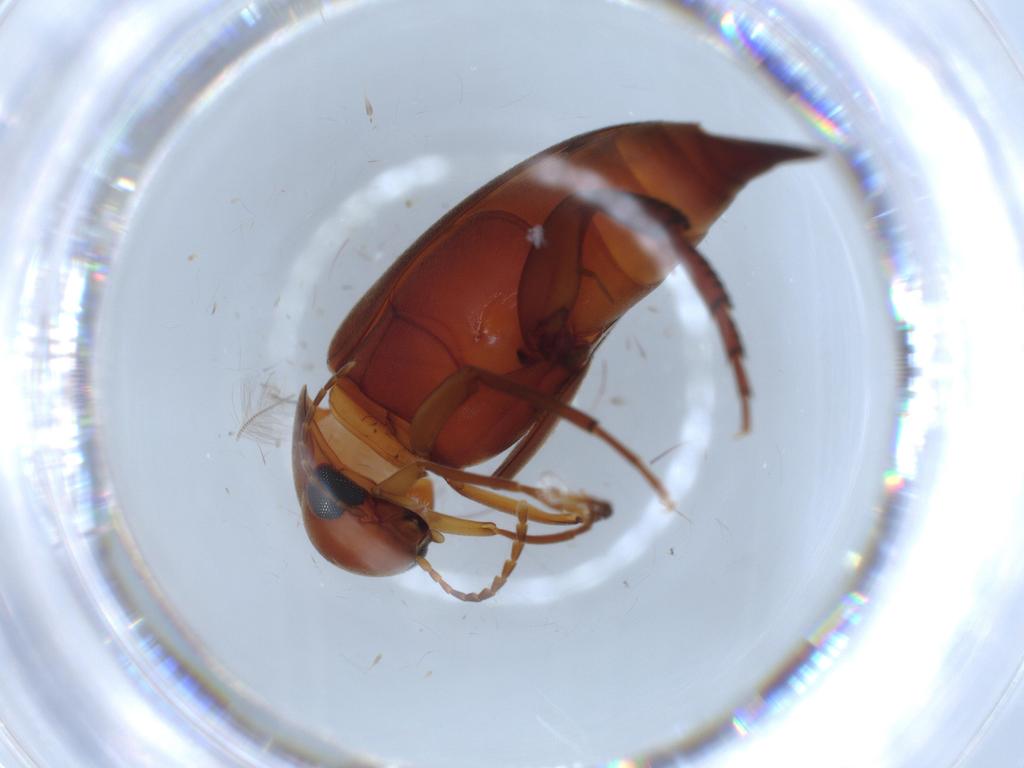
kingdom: Animalia
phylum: Arthropoda
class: Insecta
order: Coleoptera
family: Mordellidae
